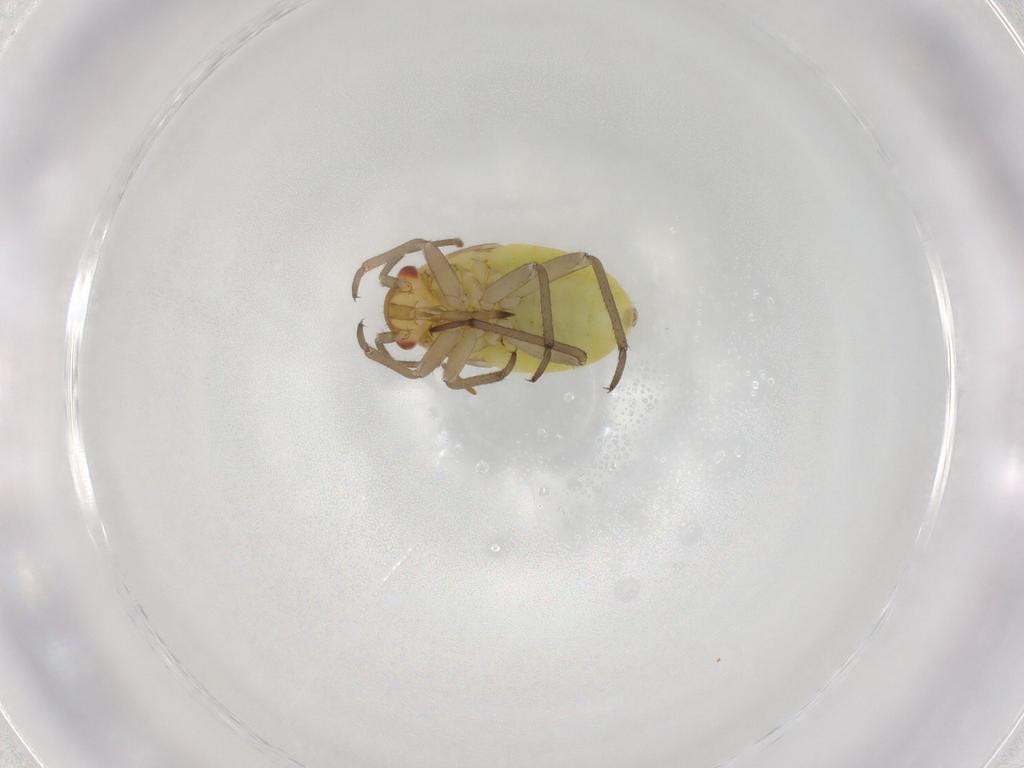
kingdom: Animalia
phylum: Arthropoda
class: Insecta
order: Hemiptera
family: Miridae
